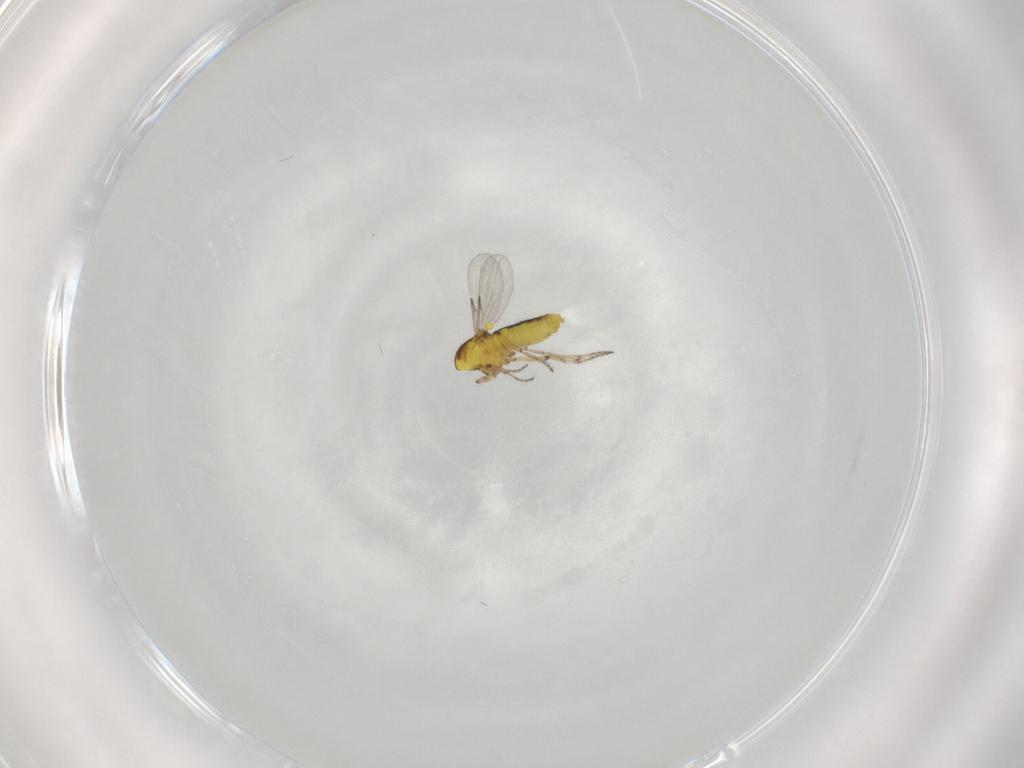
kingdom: Animalia
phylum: Arthropoda
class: Insecta
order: Diptera
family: Ceratopogonidae
